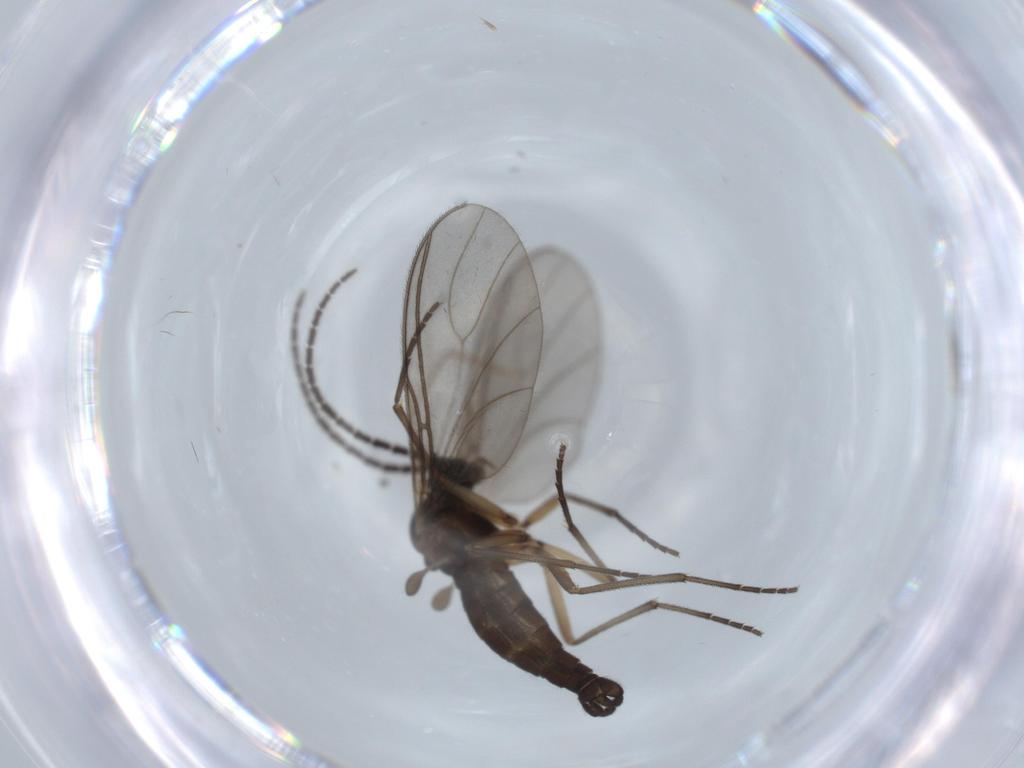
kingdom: Animalia
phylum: Arthropoda
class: Insecta
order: Diptera
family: Sciaridae
